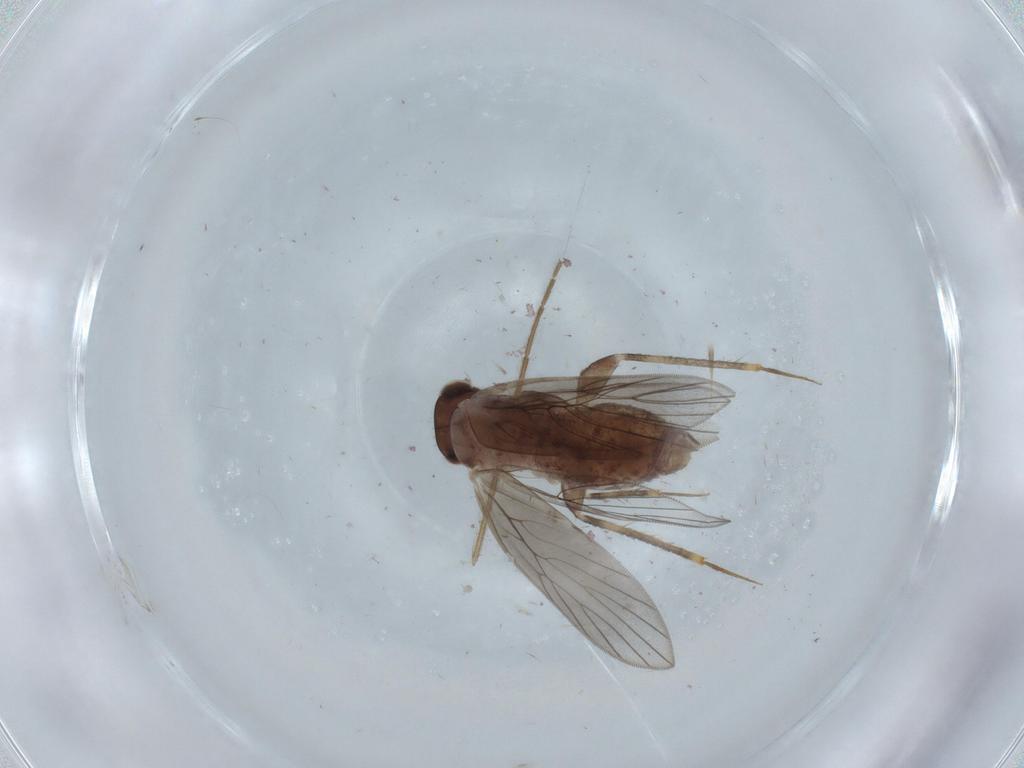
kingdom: Animalia
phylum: Arthropoda
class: Insecta
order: Psocodea
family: Lepidopsocidae
